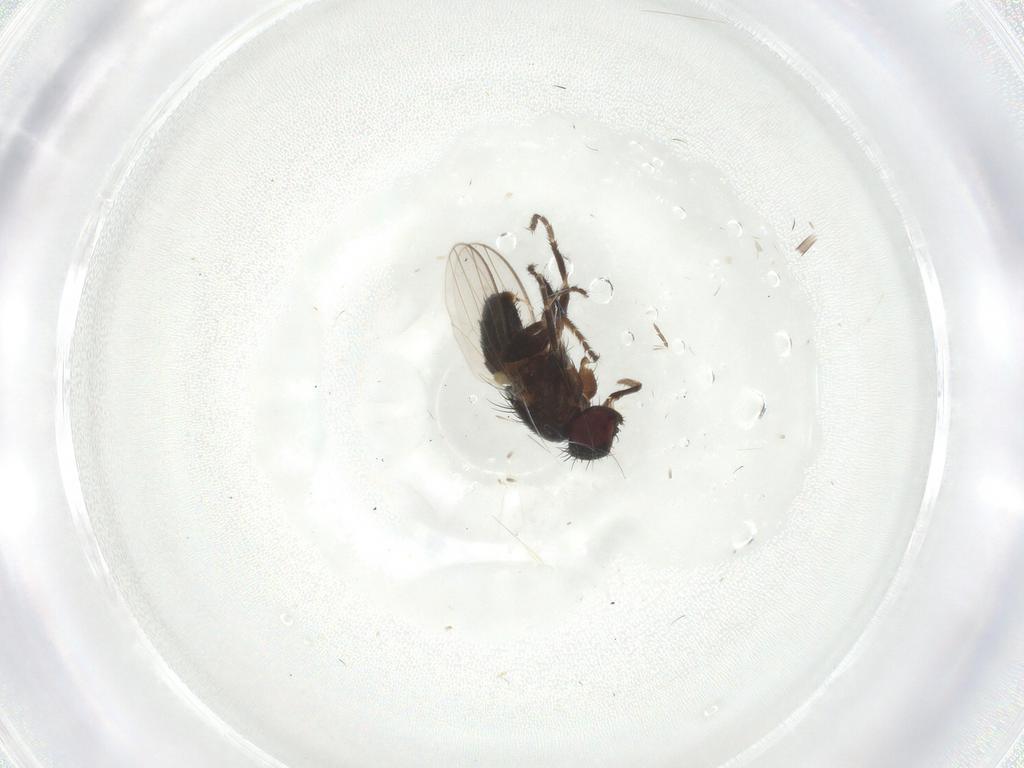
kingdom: Animalia
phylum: Arthropoda
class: Insecta
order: Diptera
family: Milichiidae
